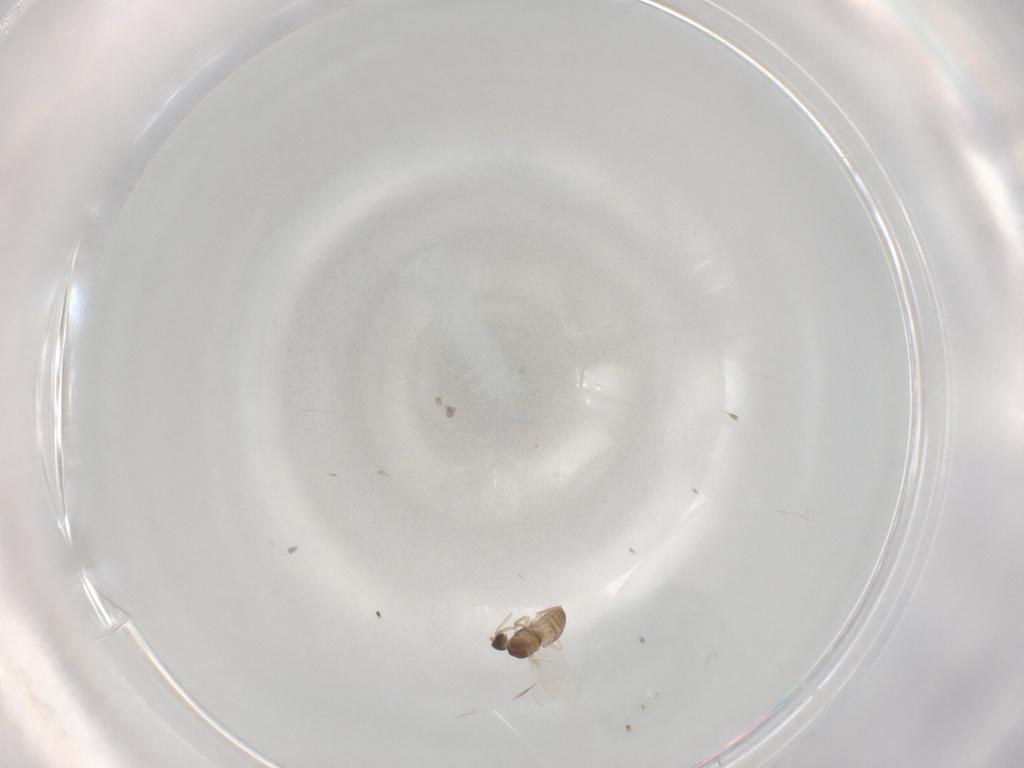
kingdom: Animalia
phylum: Arthropoda
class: Insecta
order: Diptera
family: Cecidomyiidae
